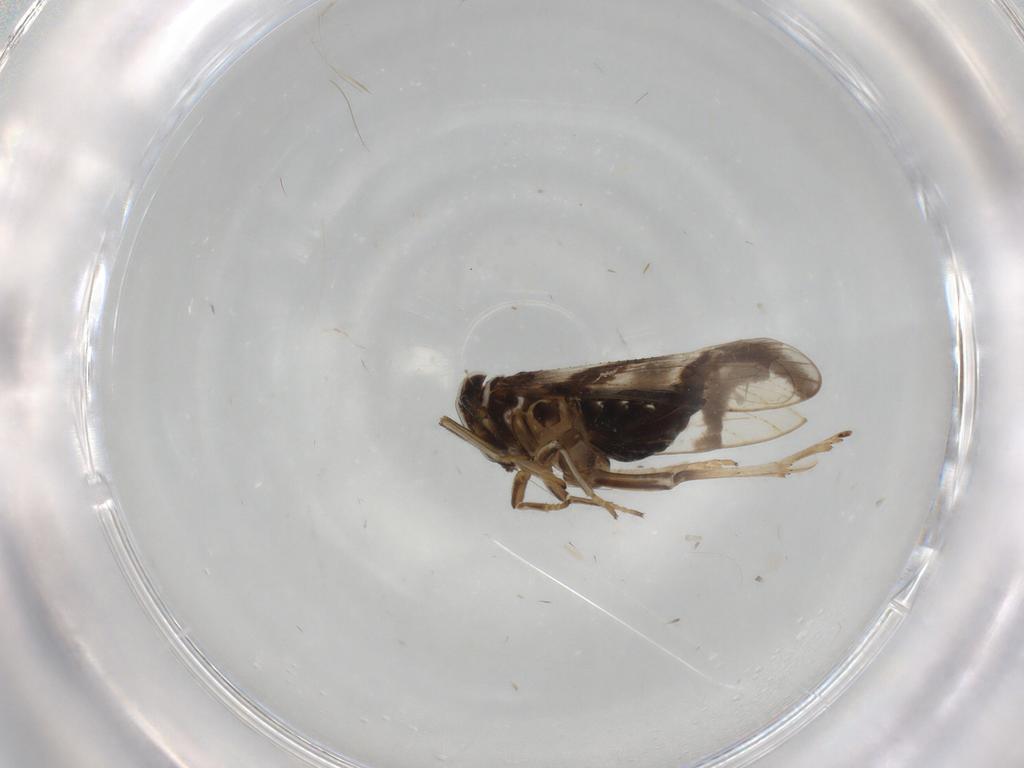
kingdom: Animalia
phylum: Arthropoda
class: Insecta
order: Hemiptera
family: Delphacidae
